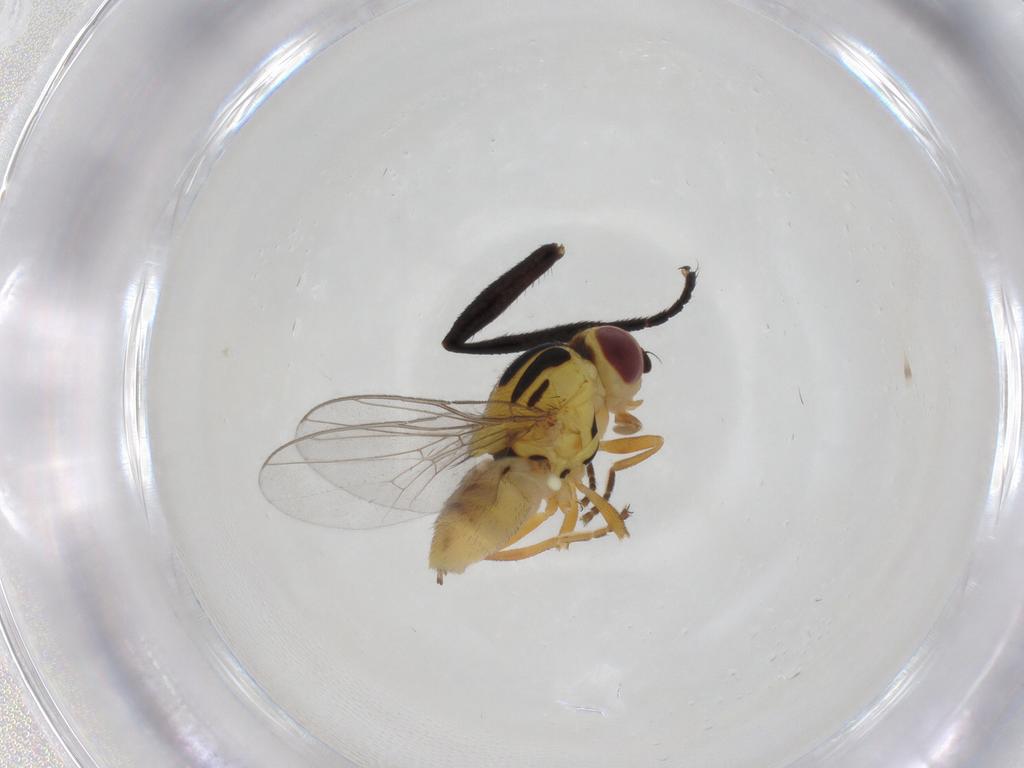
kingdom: Animalia
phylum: Arthropoda
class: Insecta
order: Diptera
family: Chloropidae
